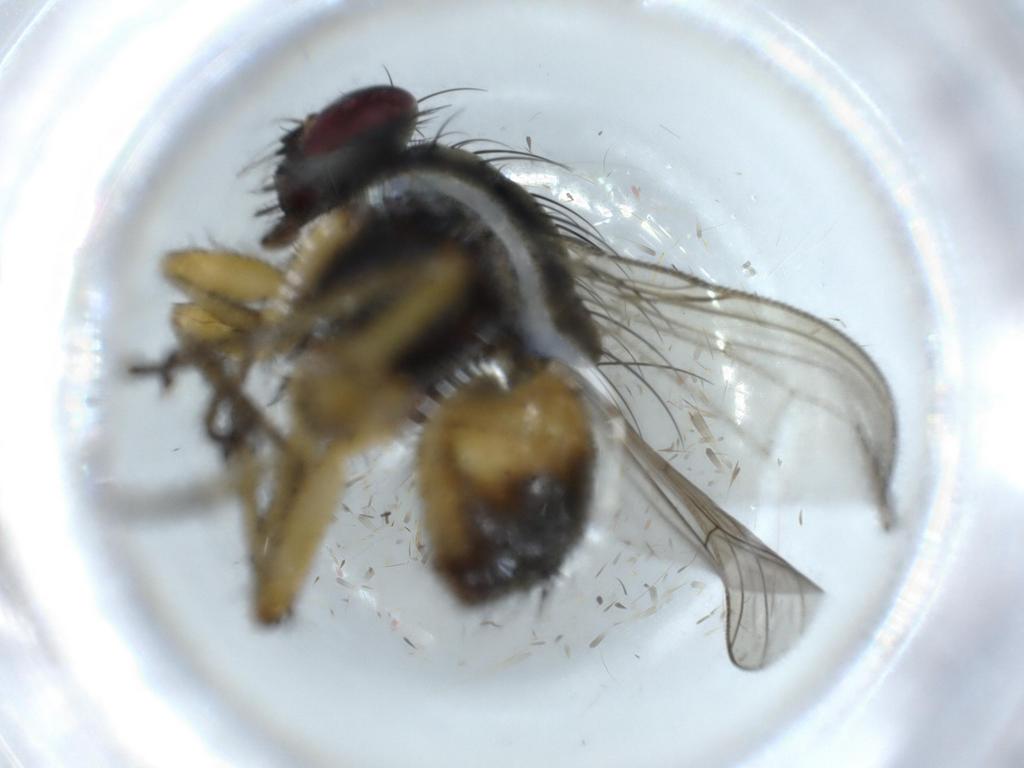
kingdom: Animalia
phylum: Arthropoda
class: Insecta
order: Diptera
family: Muscidae
